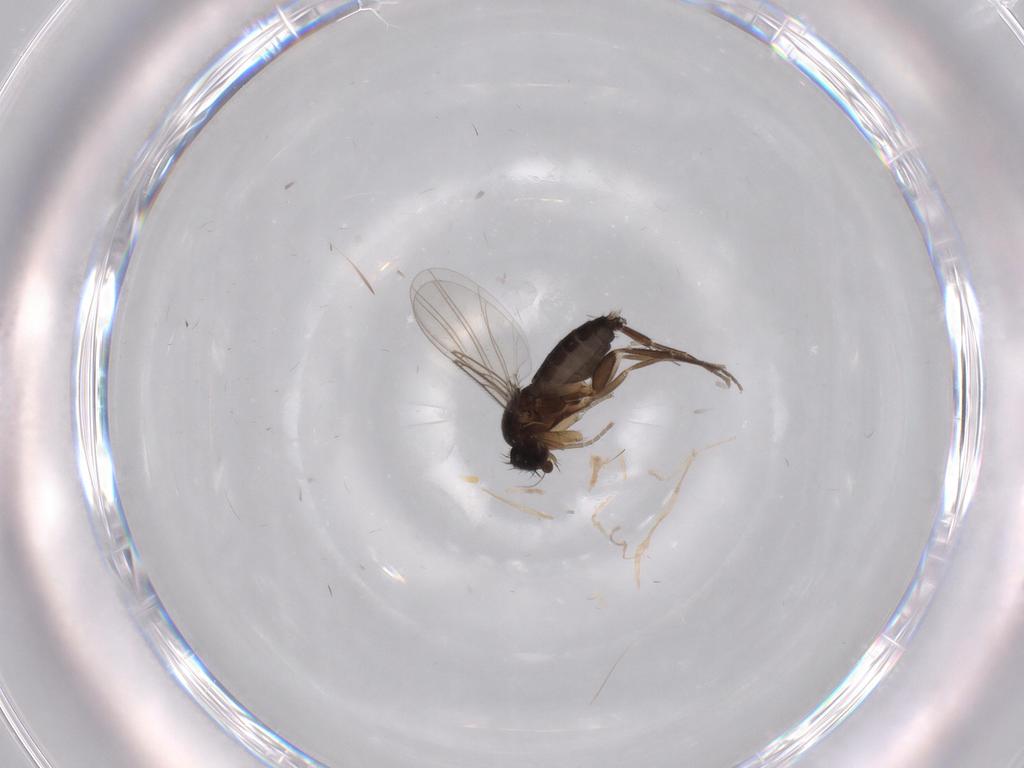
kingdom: Animalia
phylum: Arthropoda
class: Insecta
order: Diptera
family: Phoridae
